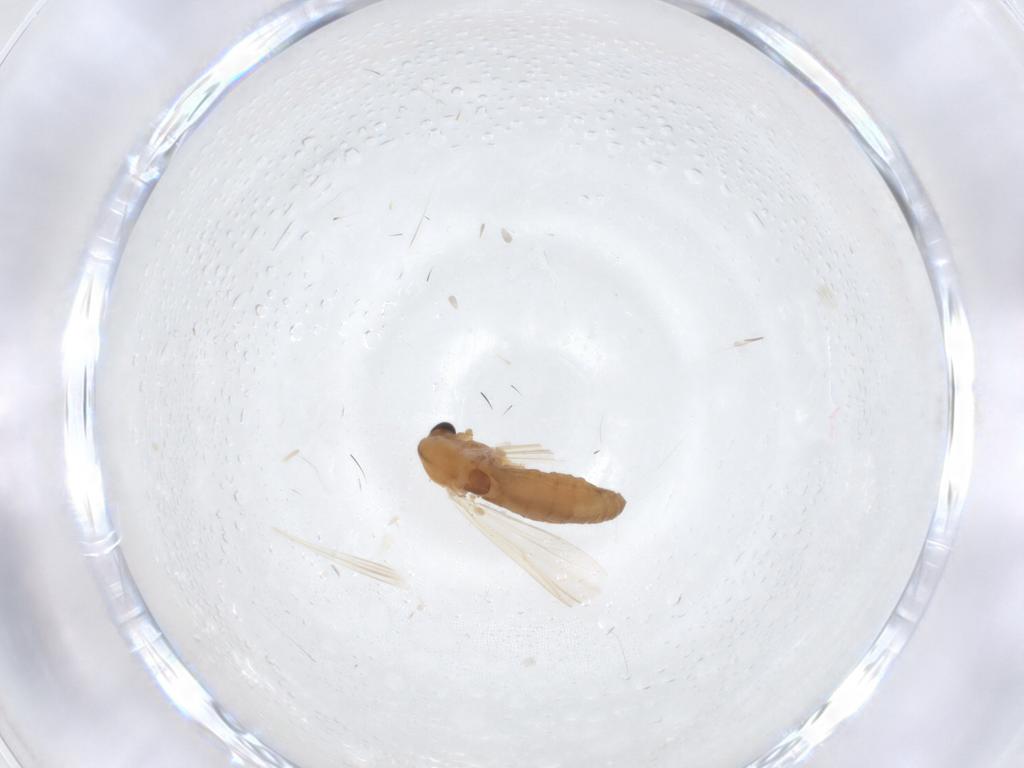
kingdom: Animalia
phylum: Arthropoda
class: Insecta
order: Diptera
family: Chironomidae
